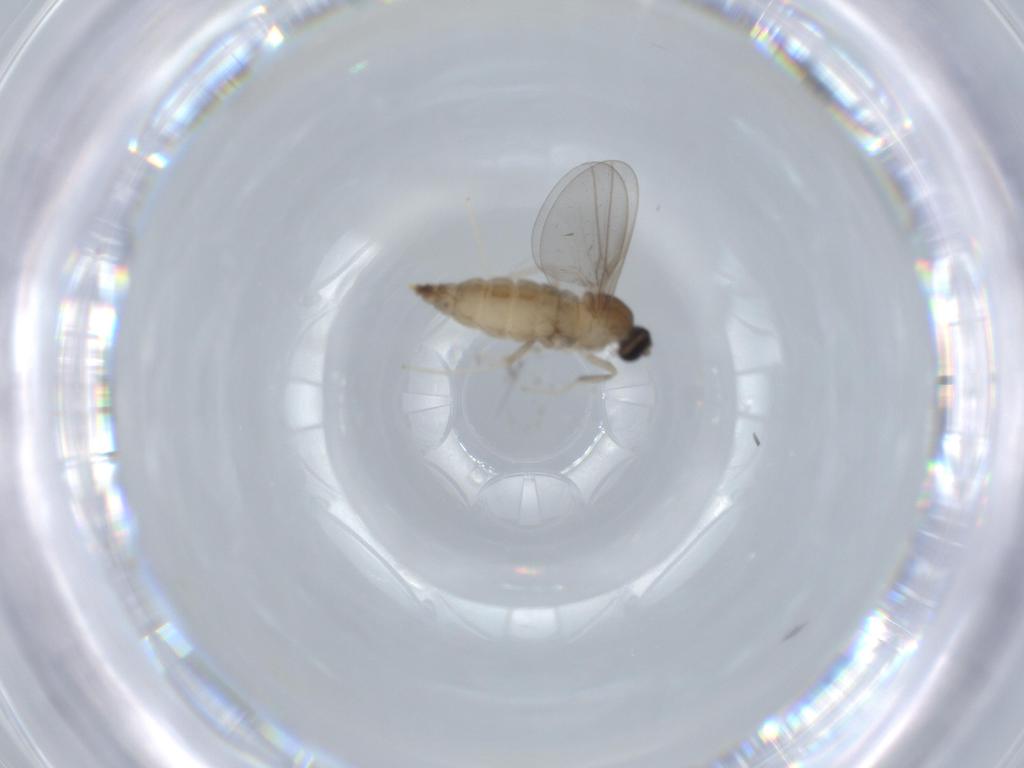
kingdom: Animalia
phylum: Arthropoda
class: Insecta
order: Diptera
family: Cecidomyiidae
